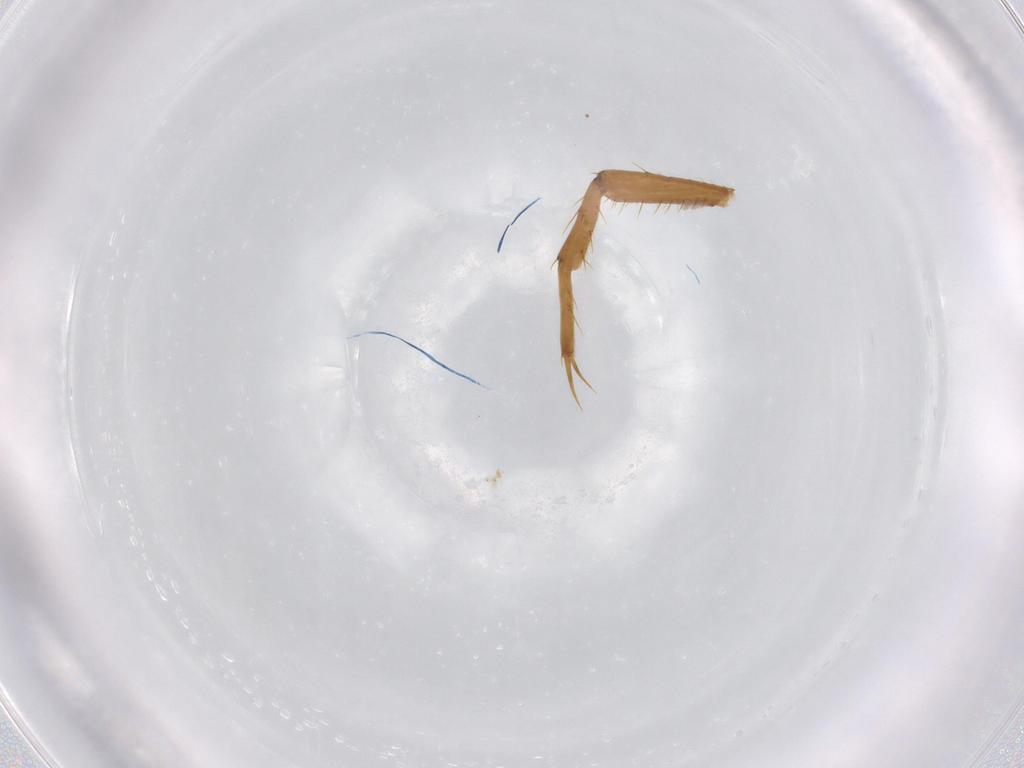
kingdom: Animalia
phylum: Arthropoda
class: Insecta
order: Coleoptera
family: Dytiscidae
